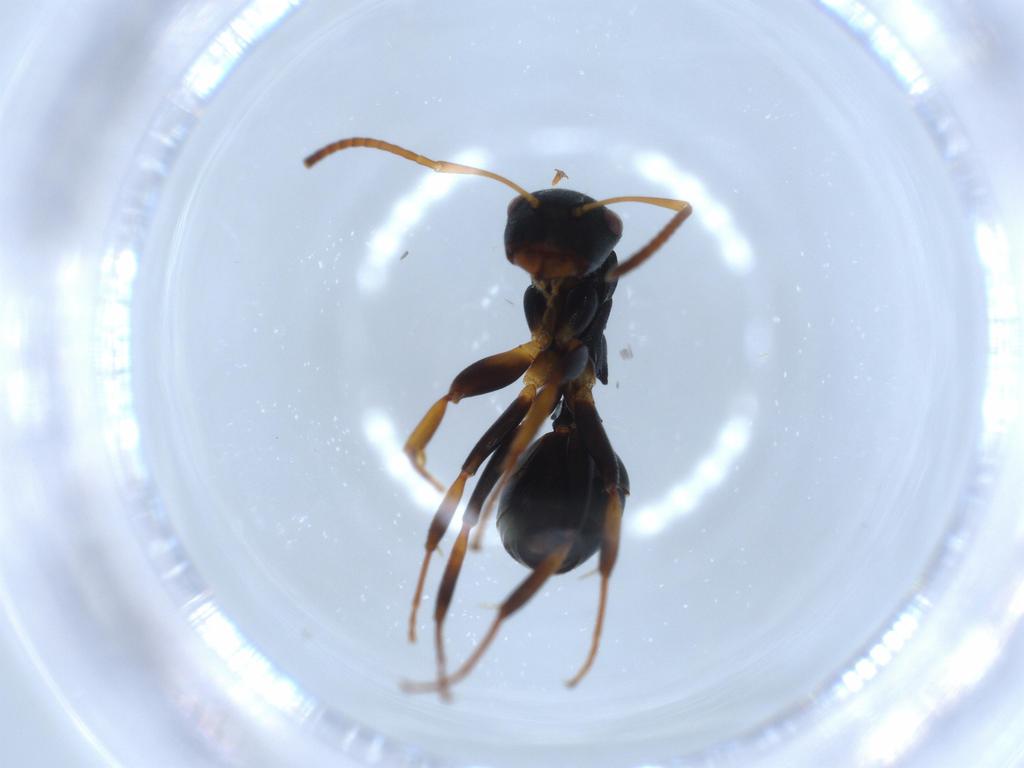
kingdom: Animalia
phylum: Arthropoda
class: Insecta
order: Hymenoptera
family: Formicidae
